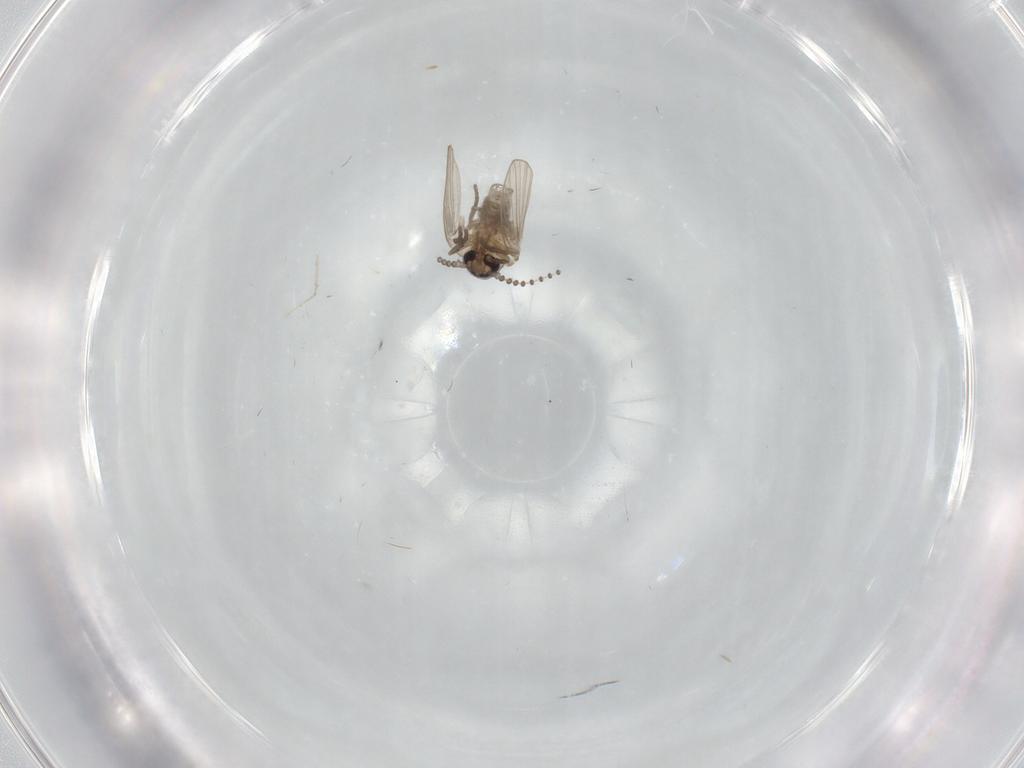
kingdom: Animalia
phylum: Arthropoda
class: Insecta
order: Diptera
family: Psychodidae
